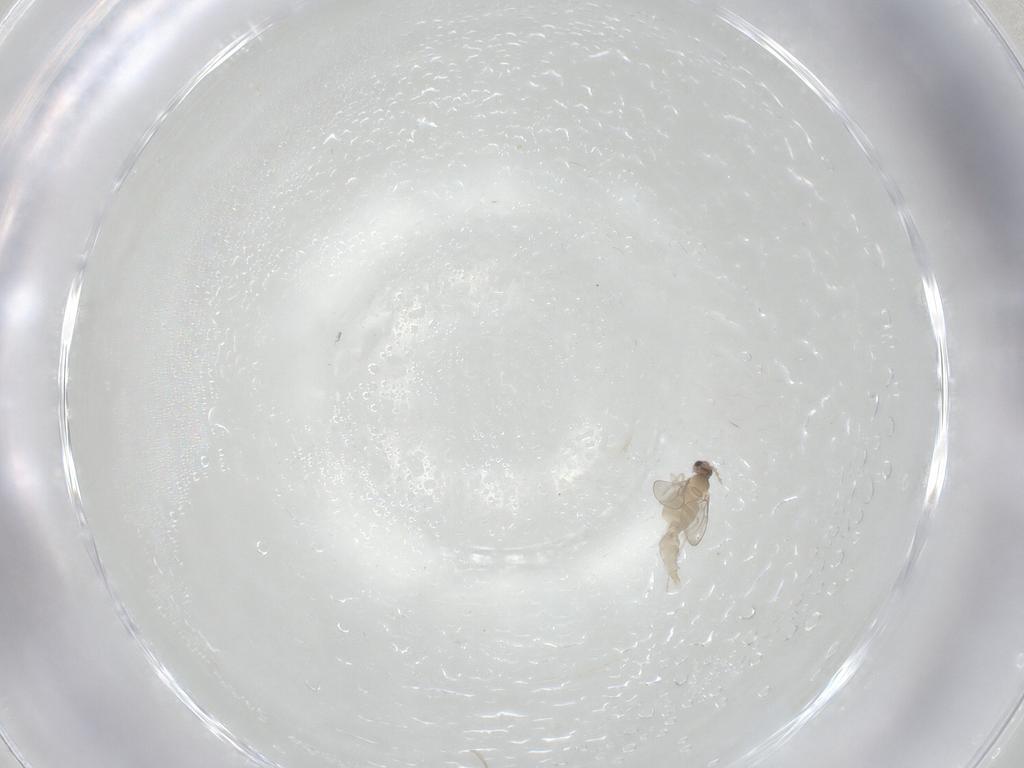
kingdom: Animalia
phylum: Arthropoda
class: Insecta
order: Diptera
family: Cecidomyiidae
